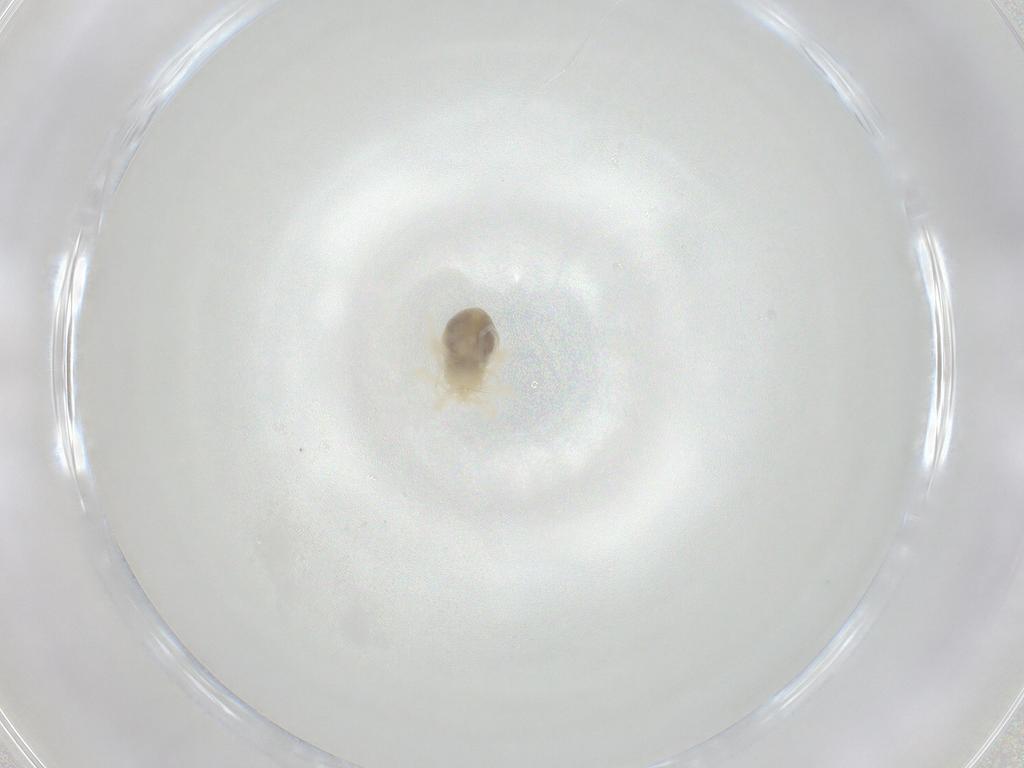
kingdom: Animalia
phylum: Arthropoda
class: Arachnida
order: Trombidiformes
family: Anystidae
